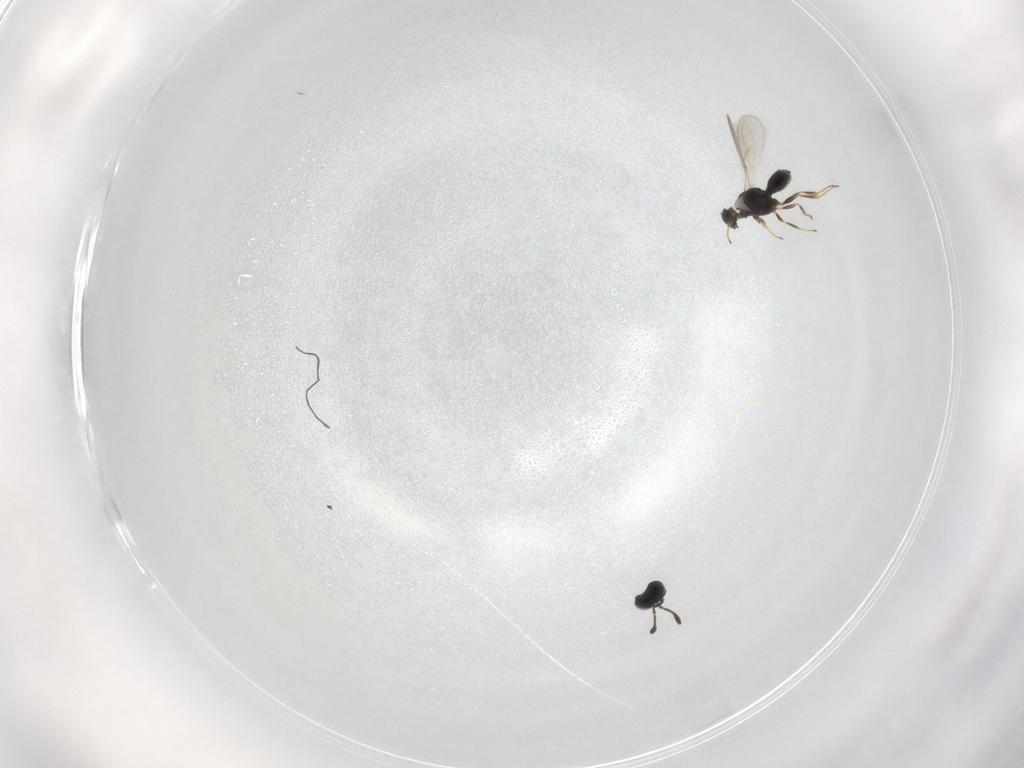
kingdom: Animalia
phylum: Arthropoda
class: Insecta
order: Hymenoptera
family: Scelionidae
